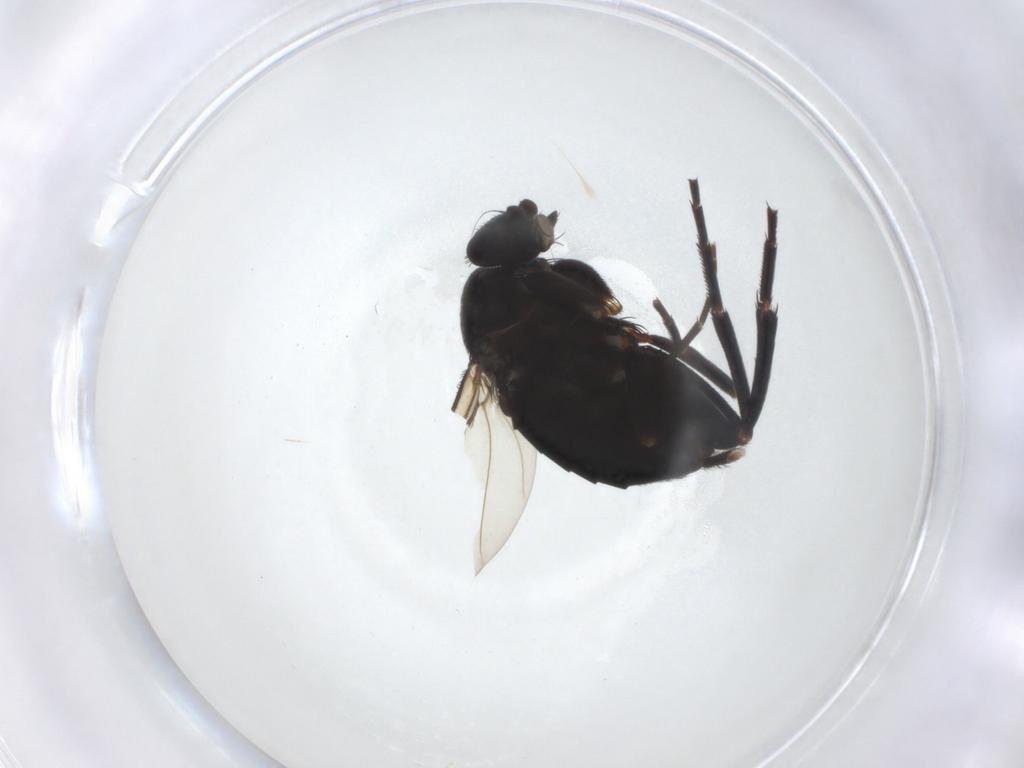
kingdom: Animalia
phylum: Arthropoda
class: Insecta
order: Diptera
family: Phoridae
